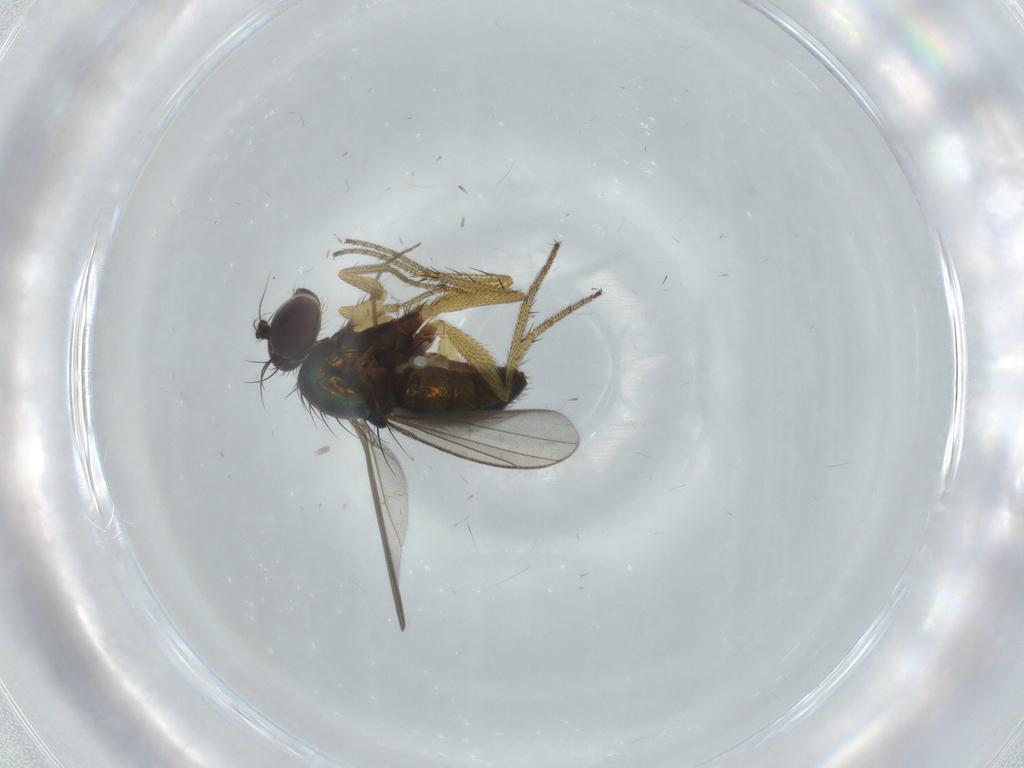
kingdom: Animalia
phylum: Arthropoda
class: Insecta
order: Diptera
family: Dolichopodidae
